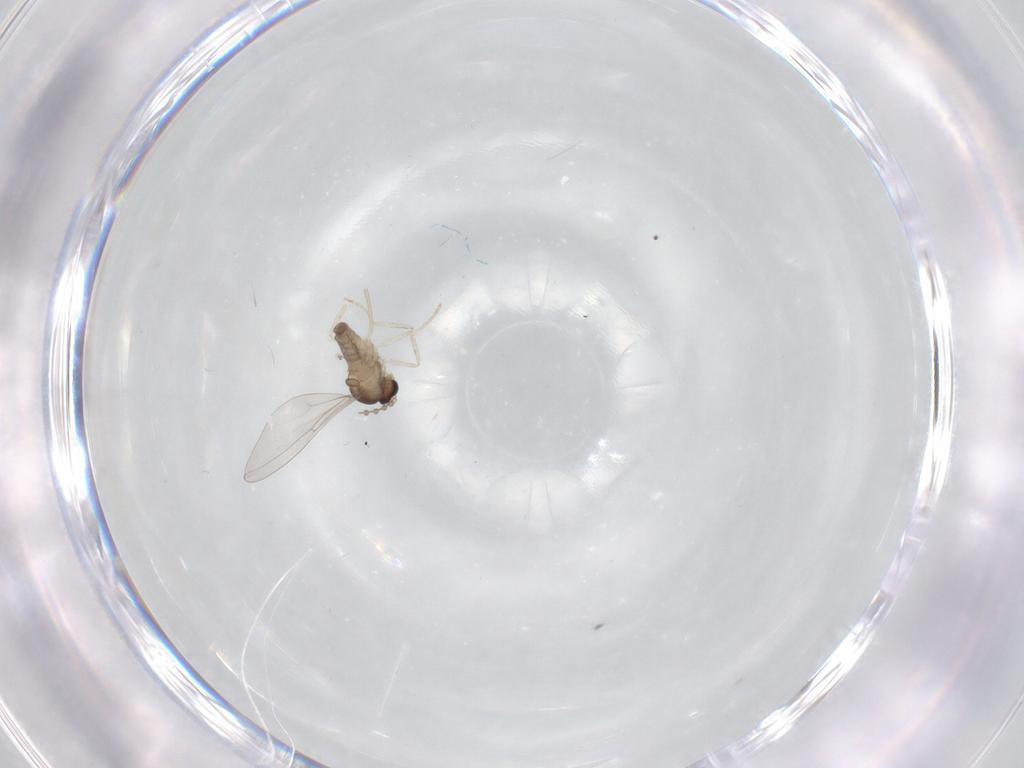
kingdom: Animalia
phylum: Arthropoda
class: Insecta
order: Diptera
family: Cecidomyiidae
